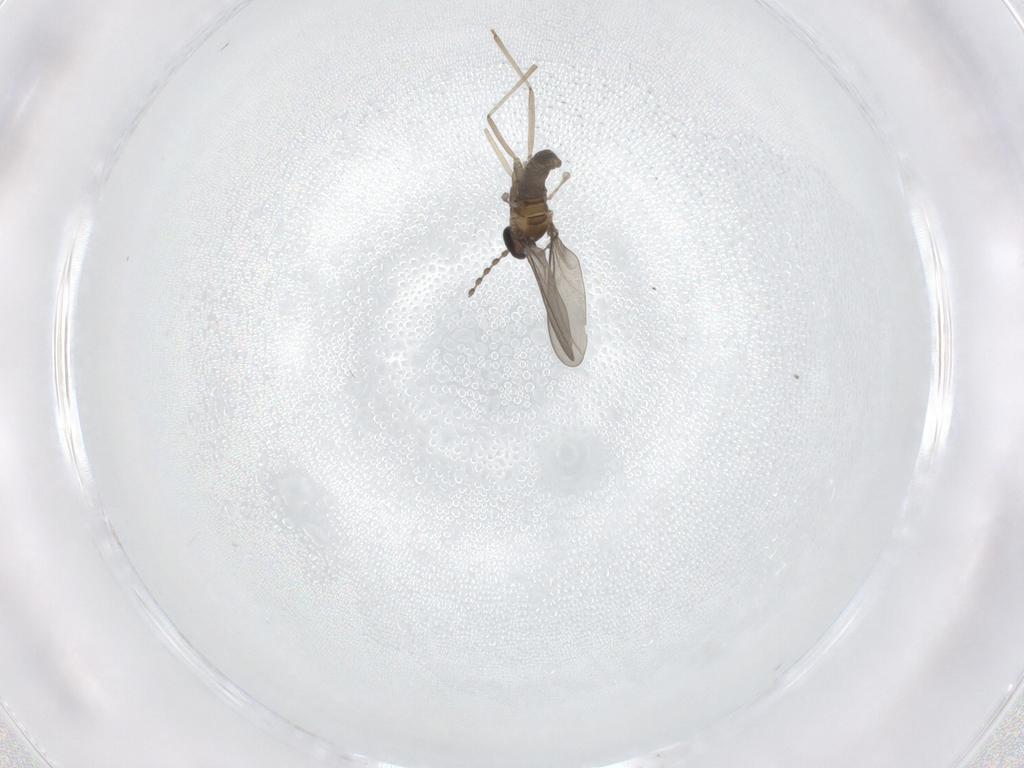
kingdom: Animalia
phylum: Arthropoda
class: Insecta
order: Diptera
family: Cecidomyiidae
